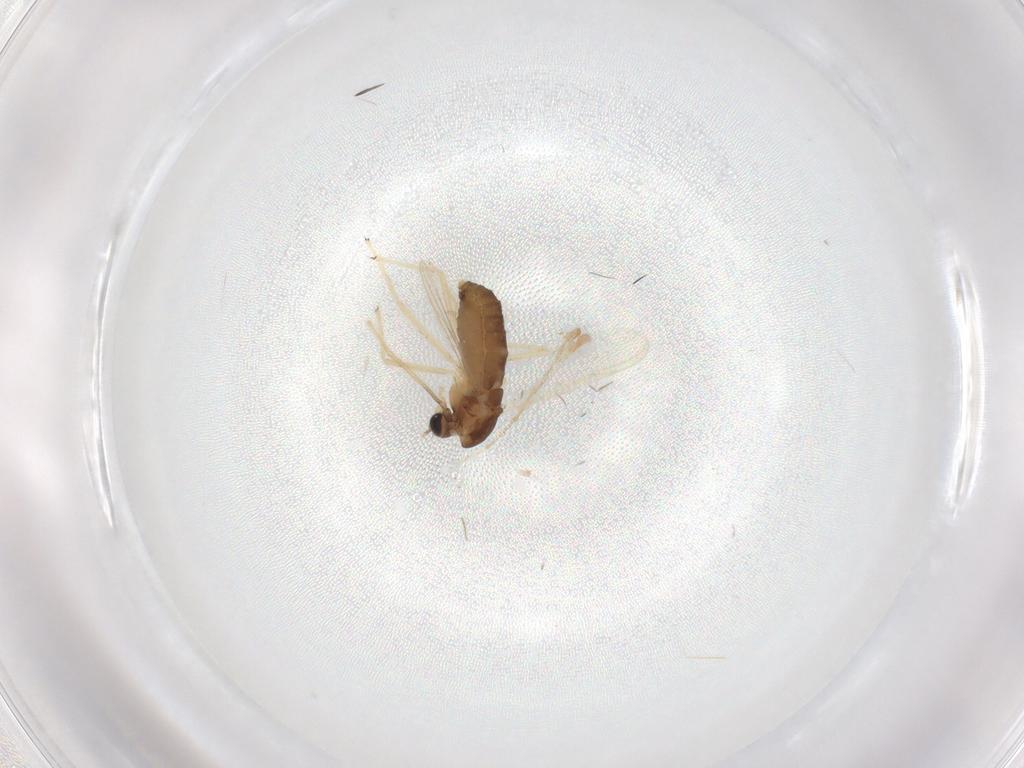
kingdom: Animalia
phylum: Arthropoda
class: Insecta
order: Diptera
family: Chironomidae
